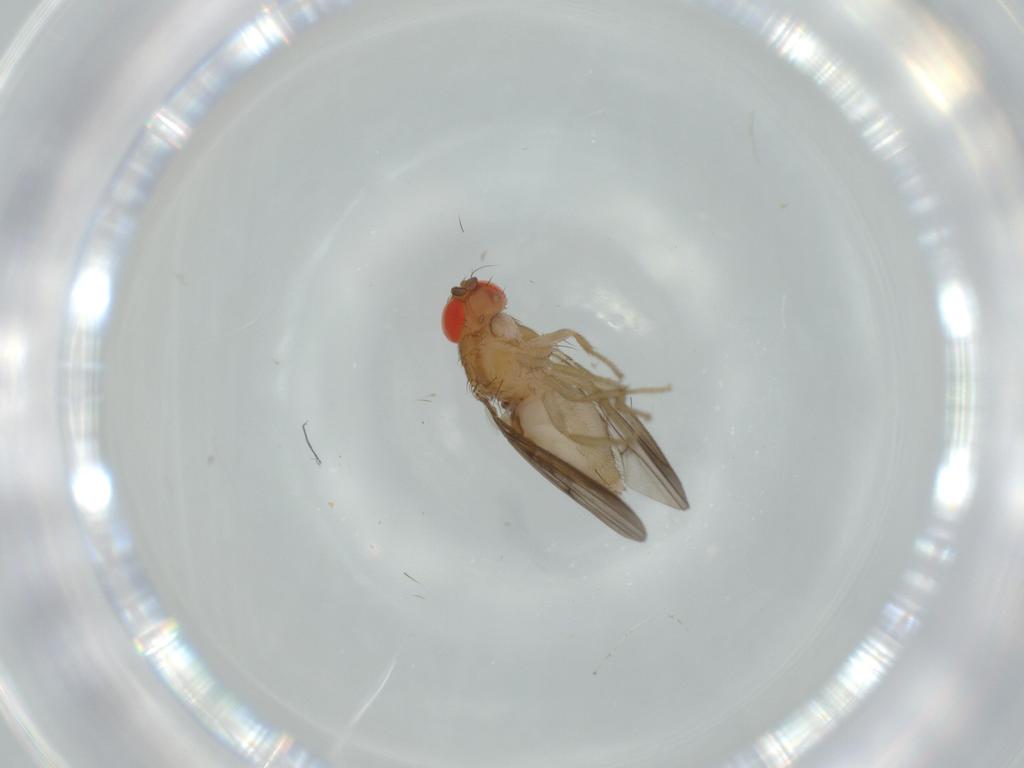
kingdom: Animalia
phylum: Arthropoda
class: Insecta
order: Diptera
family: Drosophilidae
